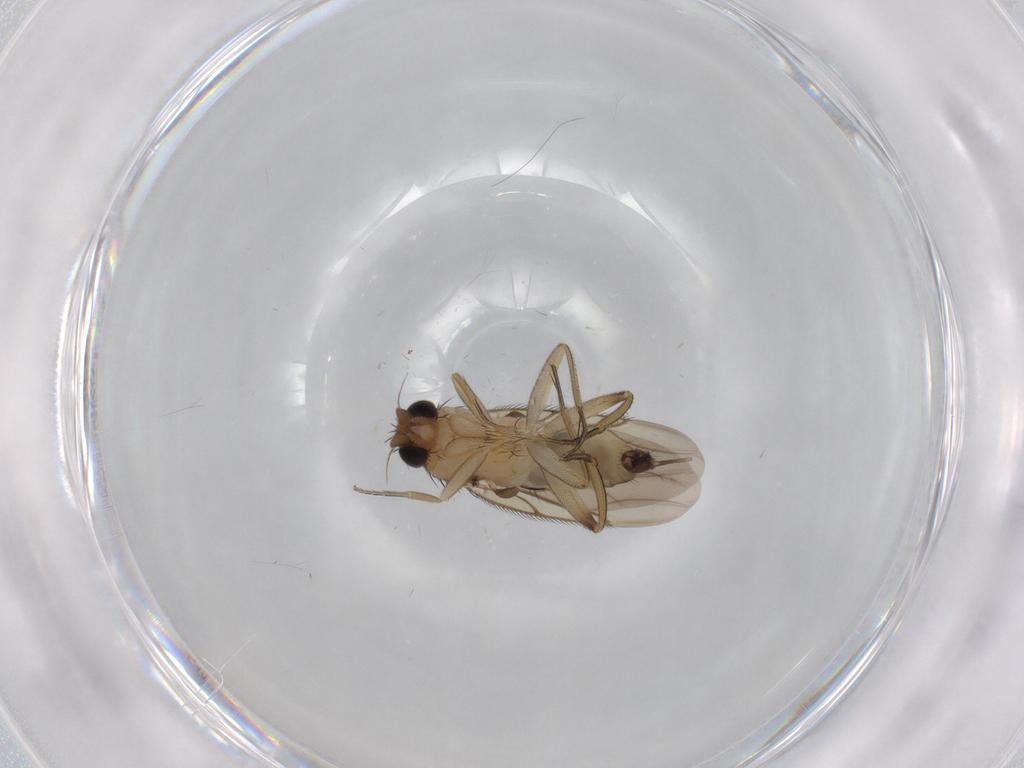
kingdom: Animalia
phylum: Arthropoda
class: Insecta
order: Diptera
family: Phoridae
